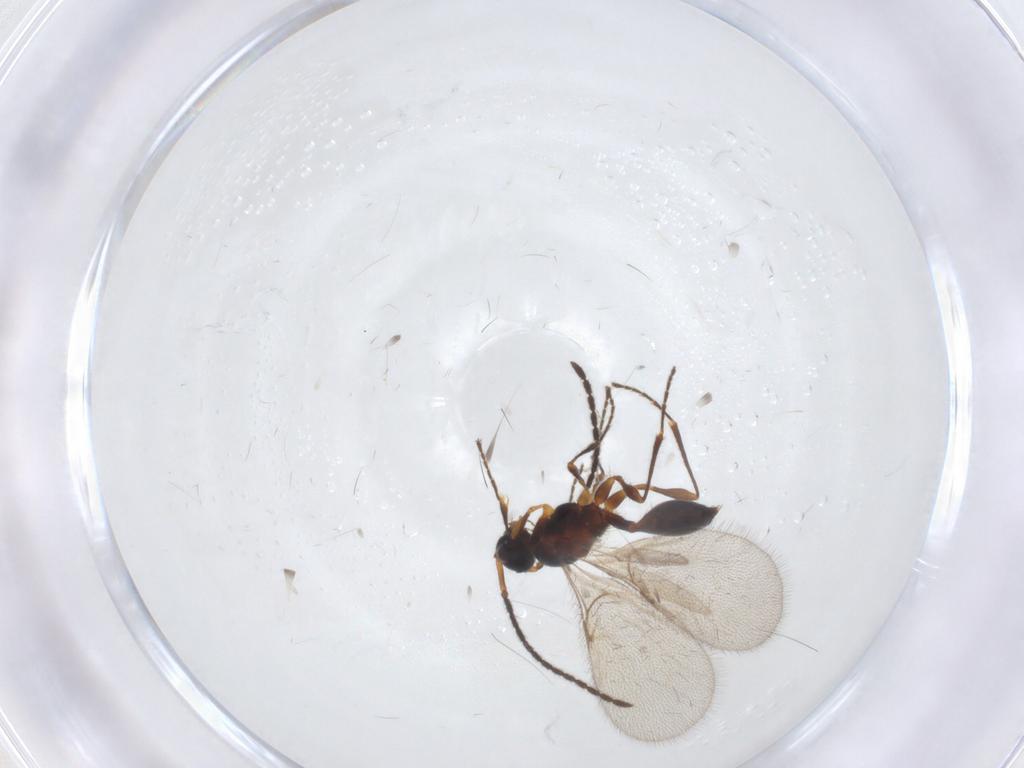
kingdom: Animalia
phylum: Arthropoda
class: Insecta
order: Hymenoptera
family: Diapriidae
